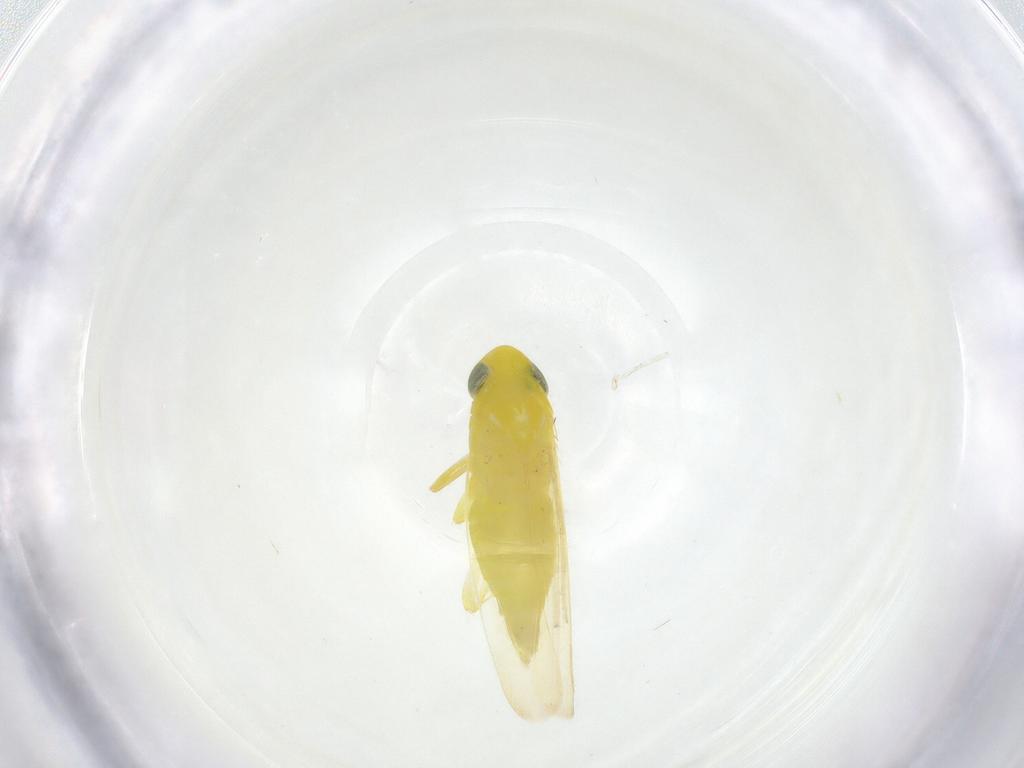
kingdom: Animalia
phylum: Arthropoda
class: Insecta
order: Hemiptera
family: Cicadellidae
